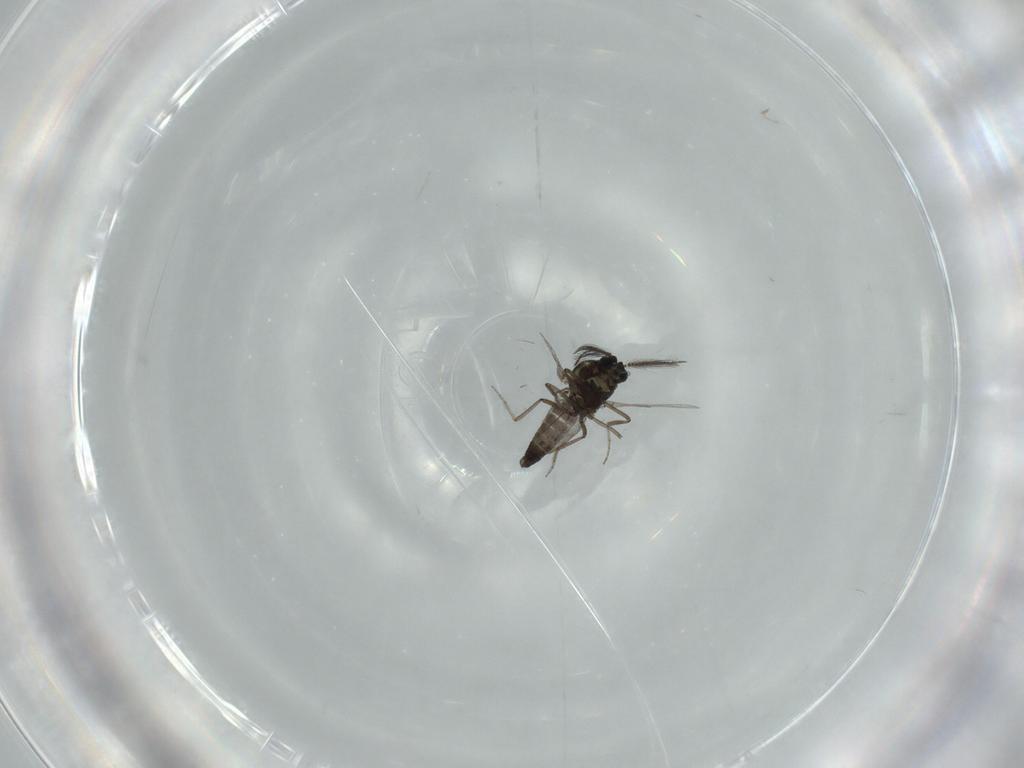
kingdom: Animalia
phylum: Arthropoda
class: Insecta
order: Diptera
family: Ceratopogonidae
